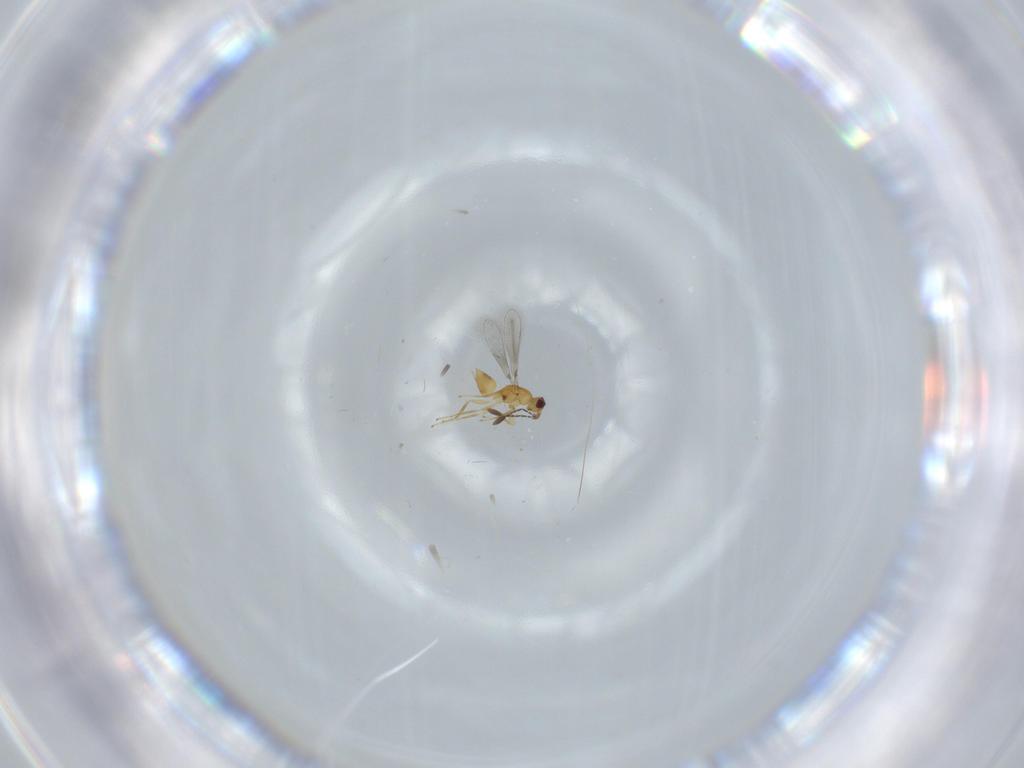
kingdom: Animalia
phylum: Arthropoda
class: Insecta
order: Hymenoptera
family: Mymaridae
